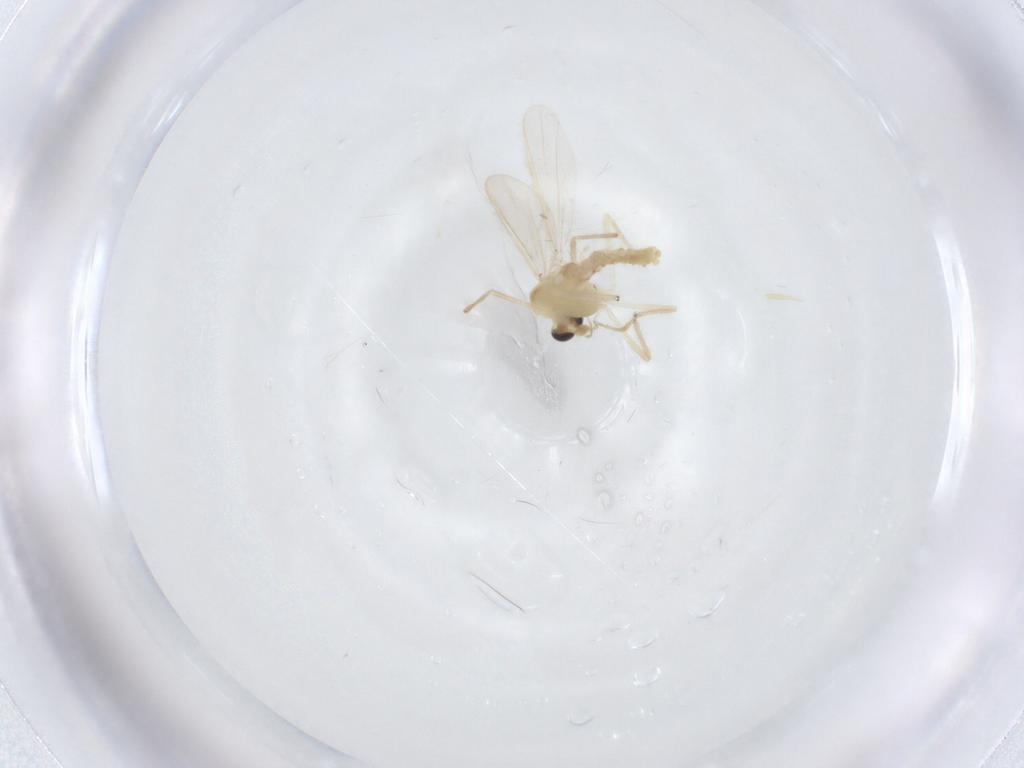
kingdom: Animalia
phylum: Arthropoda
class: Insecta
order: Diptera
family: Chironomidae
